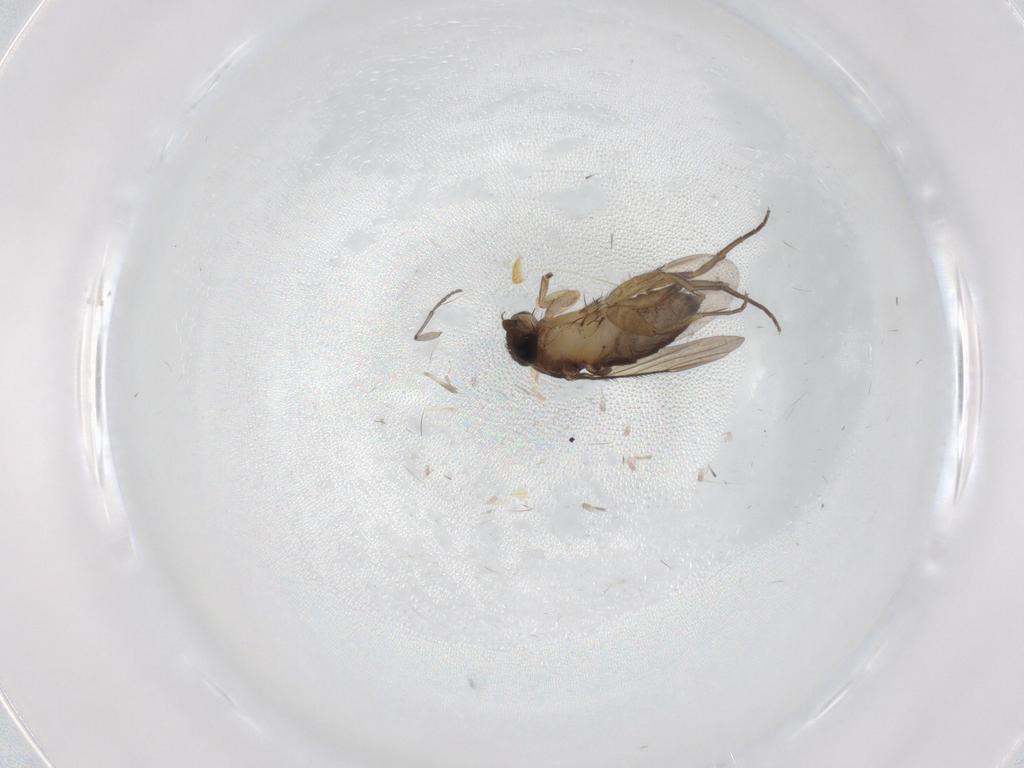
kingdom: Animalia
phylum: Arthropoda
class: Insecta
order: Diptera
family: Phoridae
